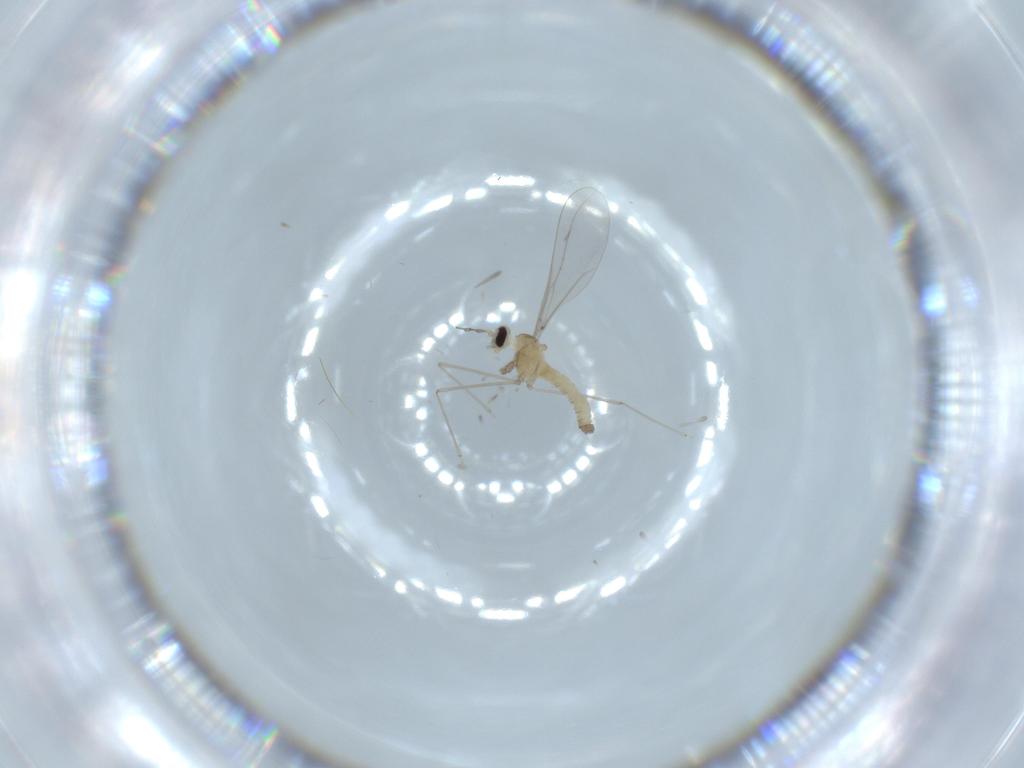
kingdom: Animalia
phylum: Arthropoda
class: Insecta
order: Diptera
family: Cecidomyiidae
